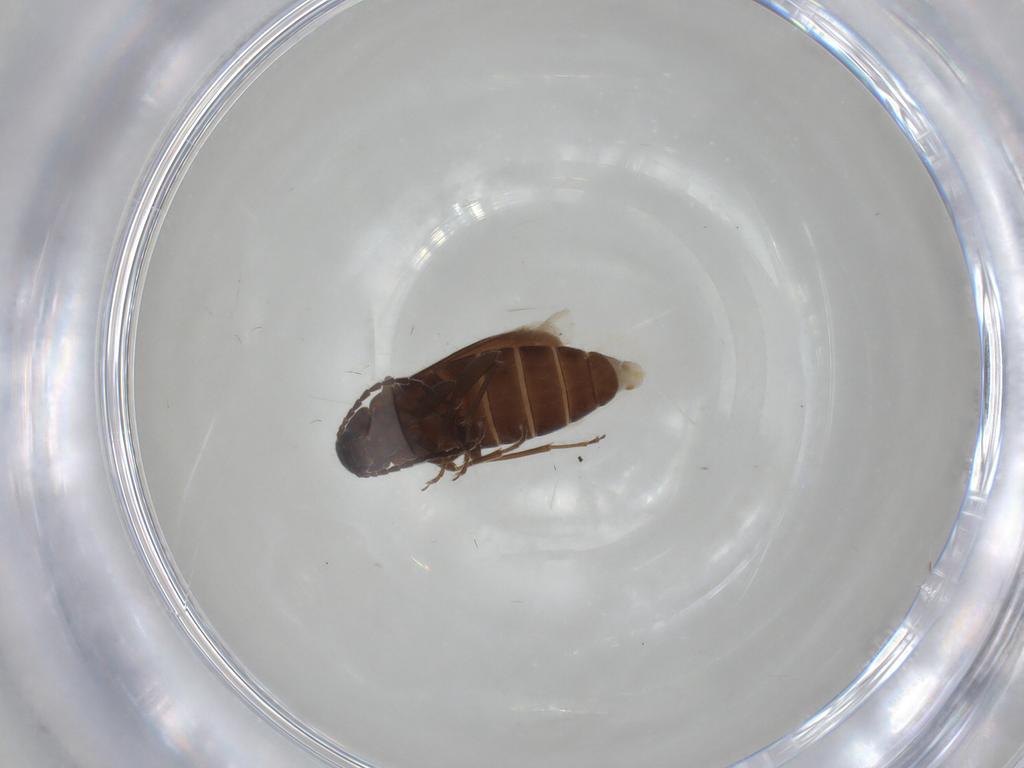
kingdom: Animalia
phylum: Arthropoda
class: Insecta
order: Coleoptera
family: Scraptiidae
